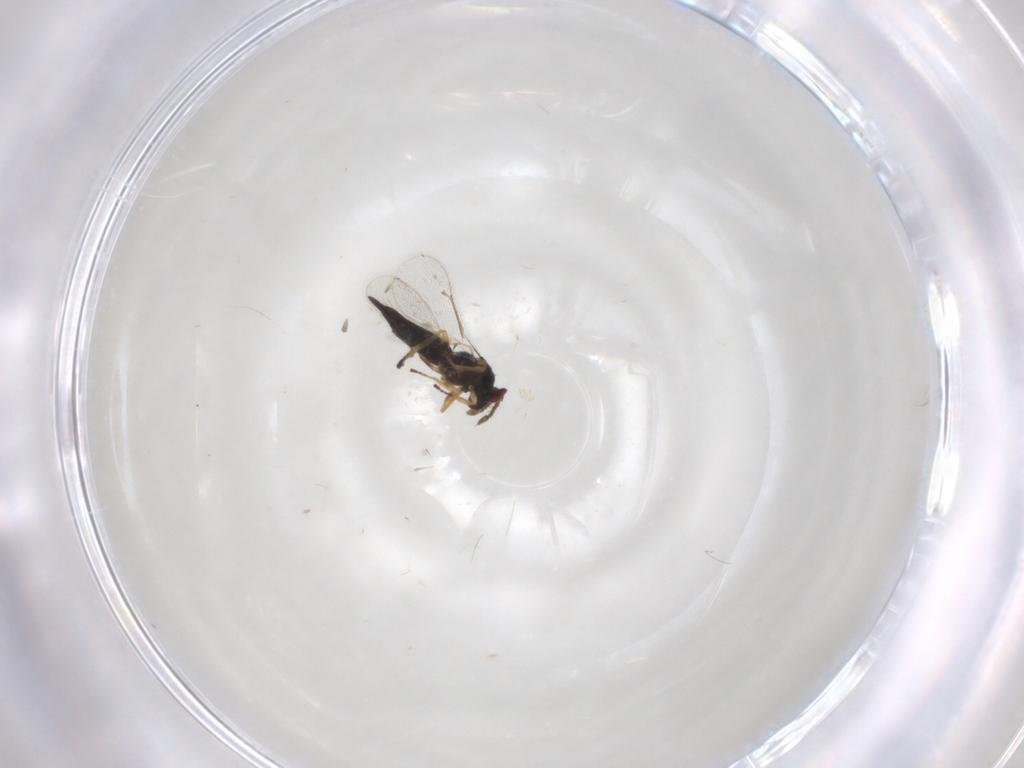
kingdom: Animalia
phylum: Arthropoda
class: Insecta
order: Hymenoptera
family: Eulophidae
